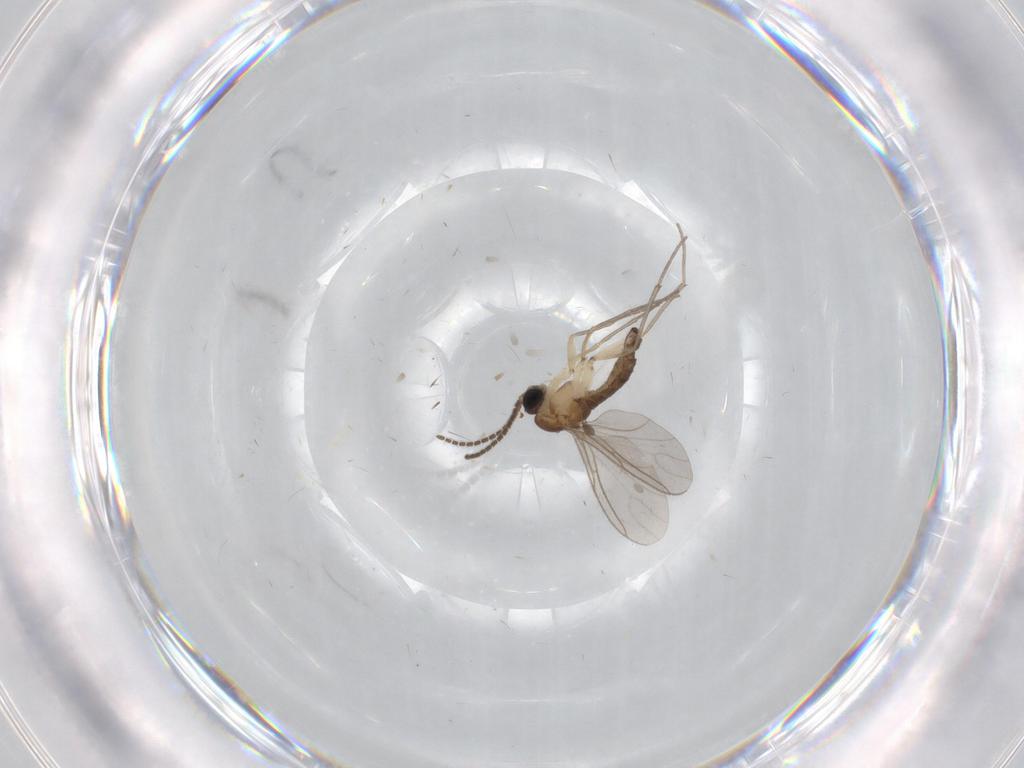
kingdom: Animalia
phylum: Arthropoda
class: Insecta
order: Diptera
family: Sciaridae
